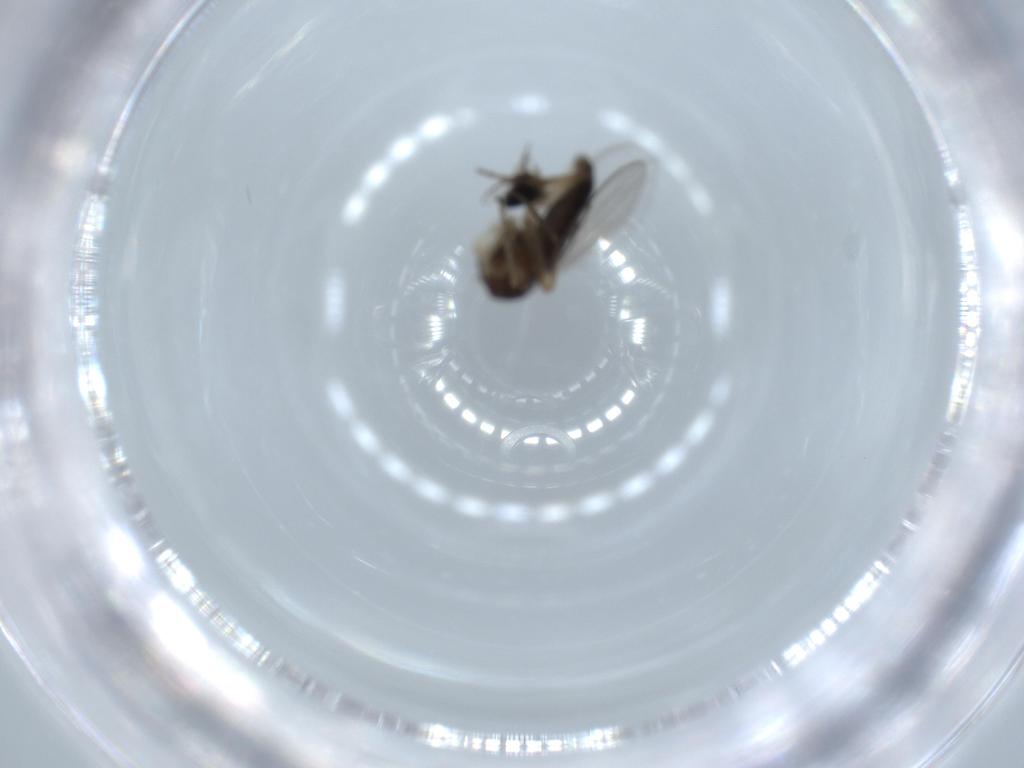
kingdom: Animalia
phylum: Arthropoda
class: Insecta
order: Diptera
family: Phoridae
